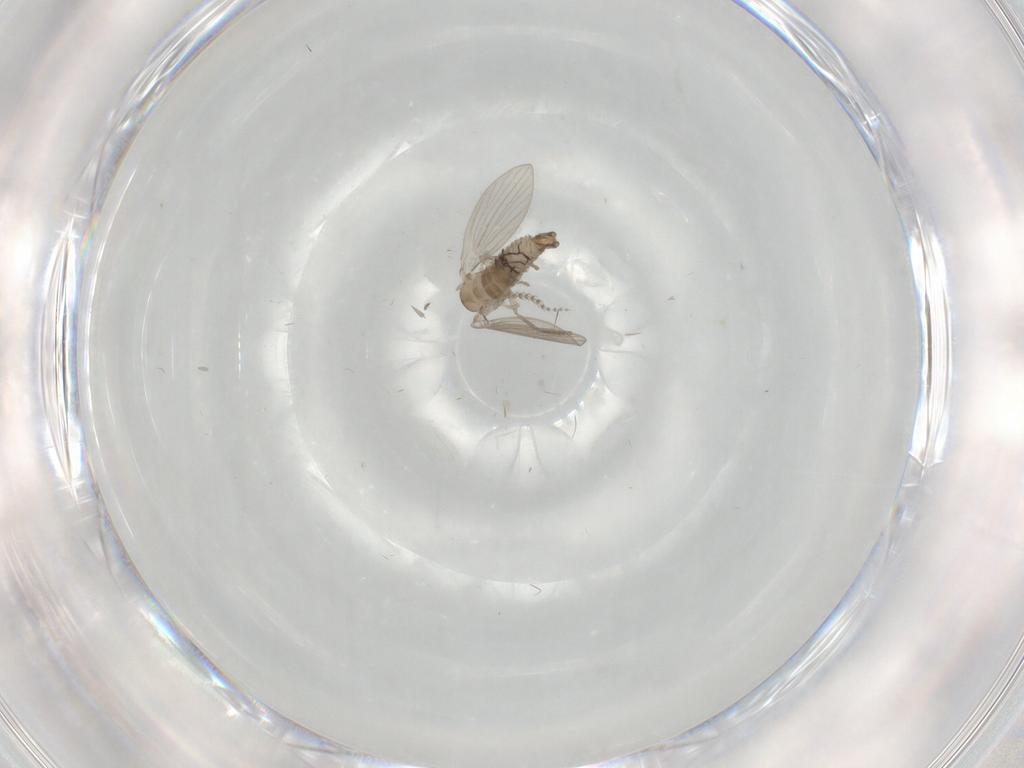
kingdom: Animalia
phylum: Arthropoda
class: Insecta
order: Diptera
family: Psychodidae
